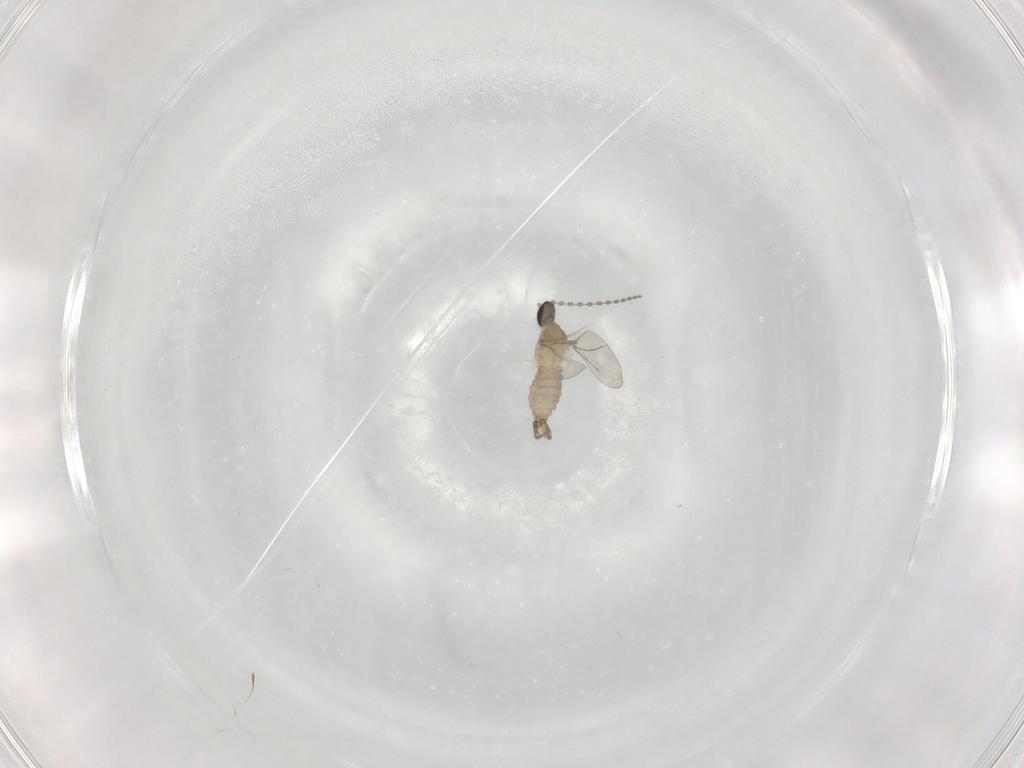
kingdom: Animalia
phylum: Arthropoda
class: Insecta
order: Diptera
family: Cecidomyiidae
